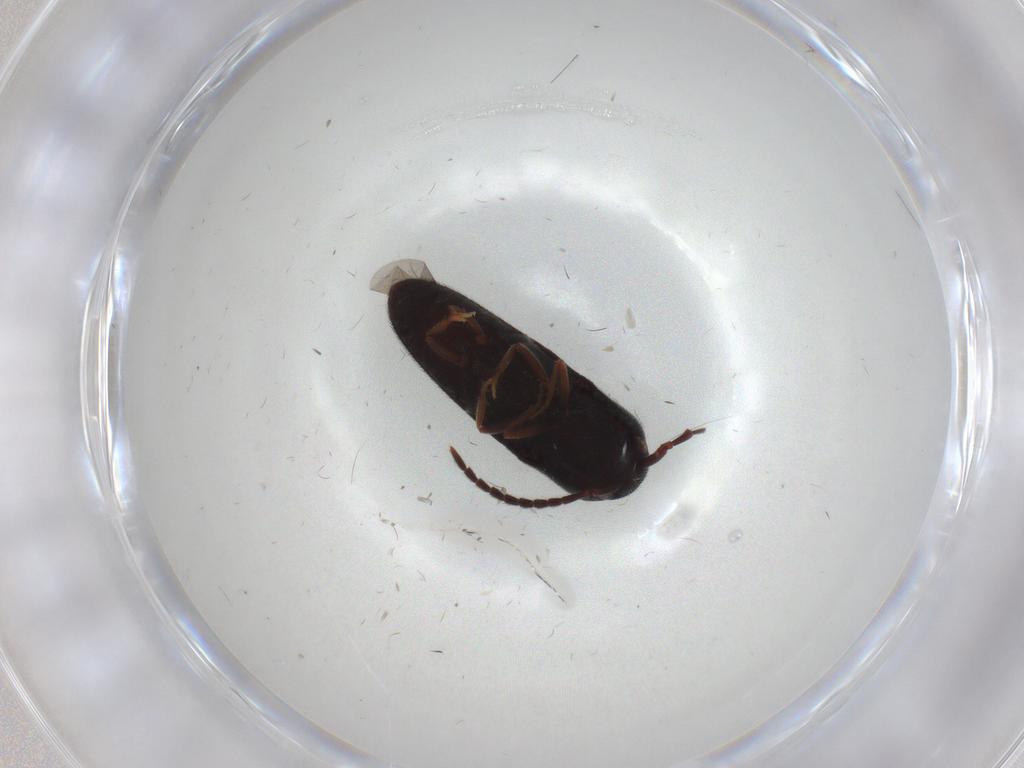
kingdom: Animalia
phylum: Arthropoda
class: Insecta
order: Coleoptera
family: Eucnemidae
